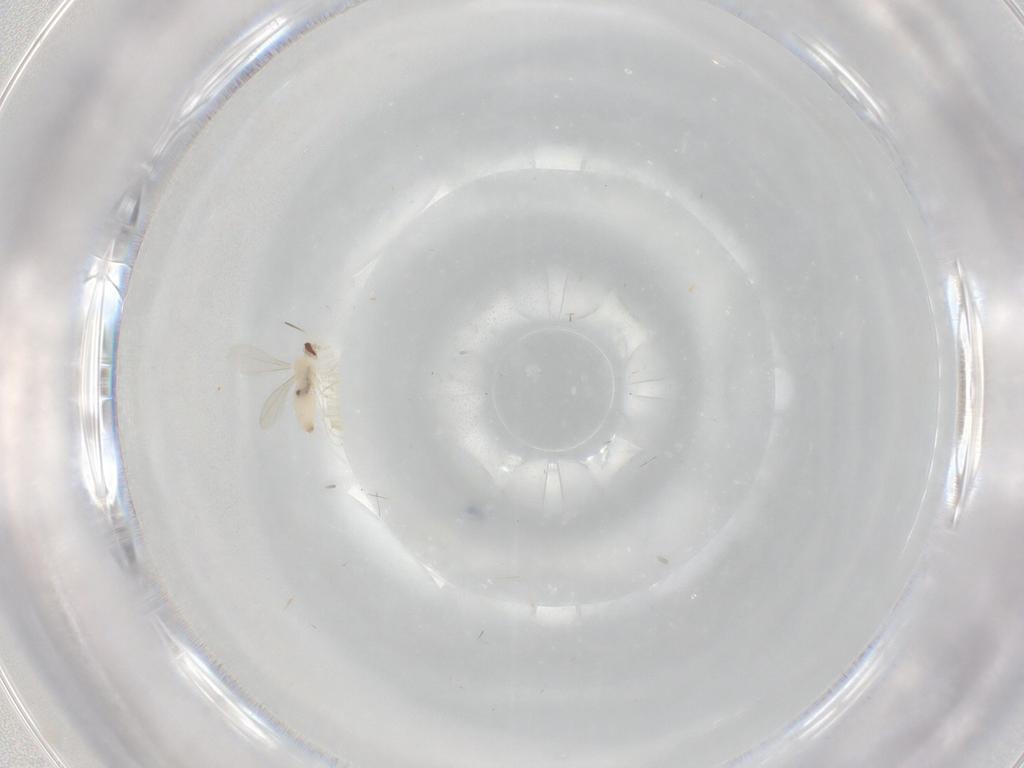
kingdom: Animalia
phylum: Arthropoda
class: Insecta
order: Diptera
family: Cecidomyiidae
